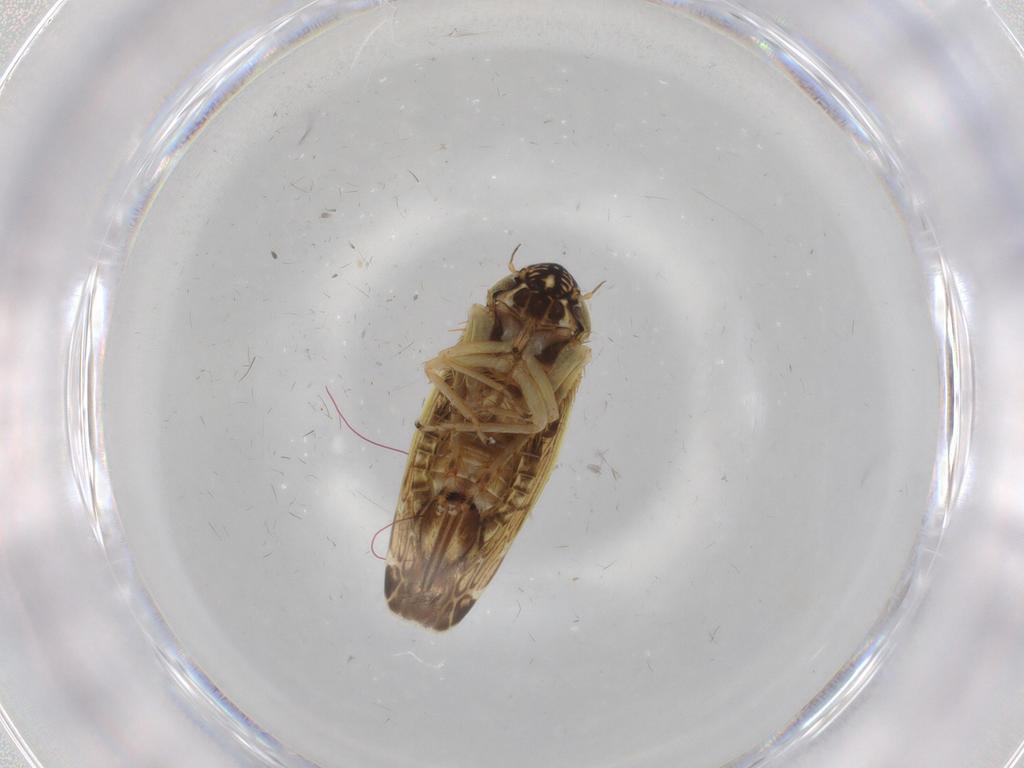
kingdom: Animalia
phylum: Arthropoda
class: Insecta
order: Hemiptera
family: Cicadellidae
